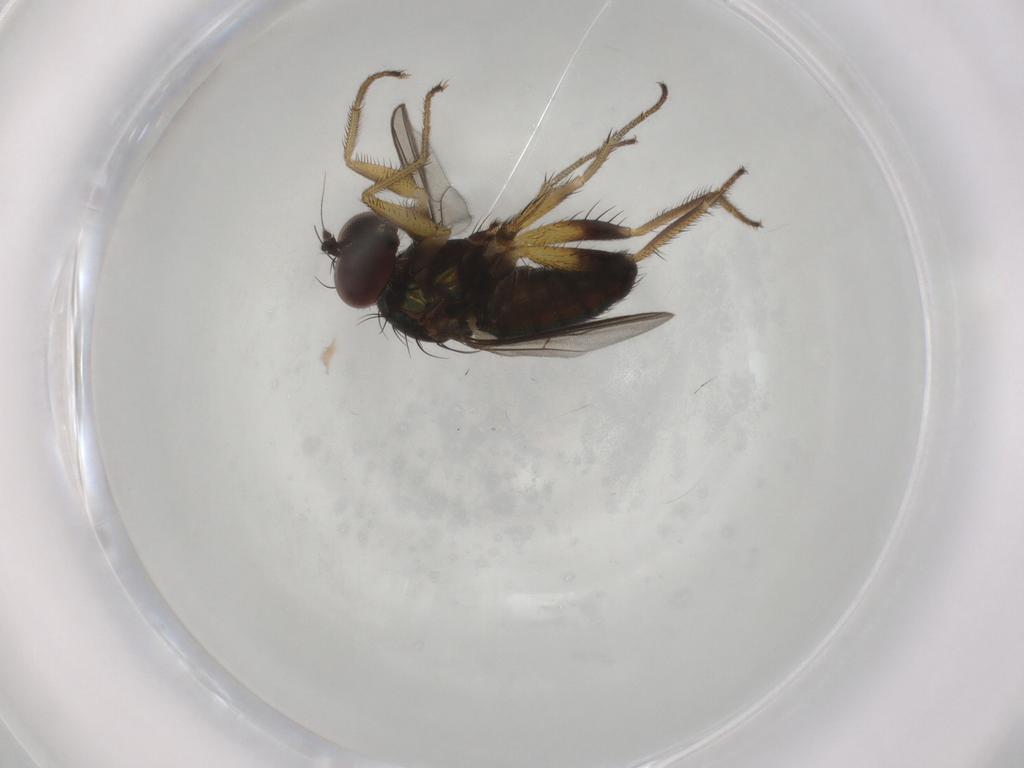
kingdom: Animalia
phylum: Arthropoda
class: Insecta
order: Diptera
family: Dolichopodidae
